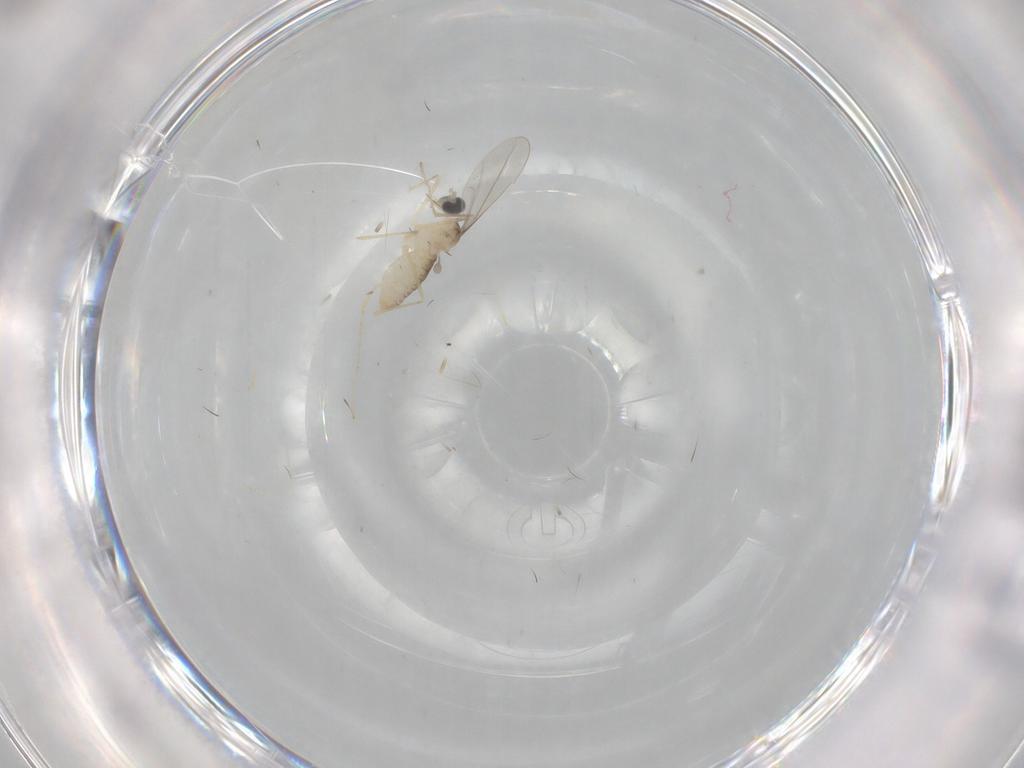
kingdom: Animalia
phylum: Arthropoda
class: Insecta
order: Diptera
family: Cecidomyiidae
